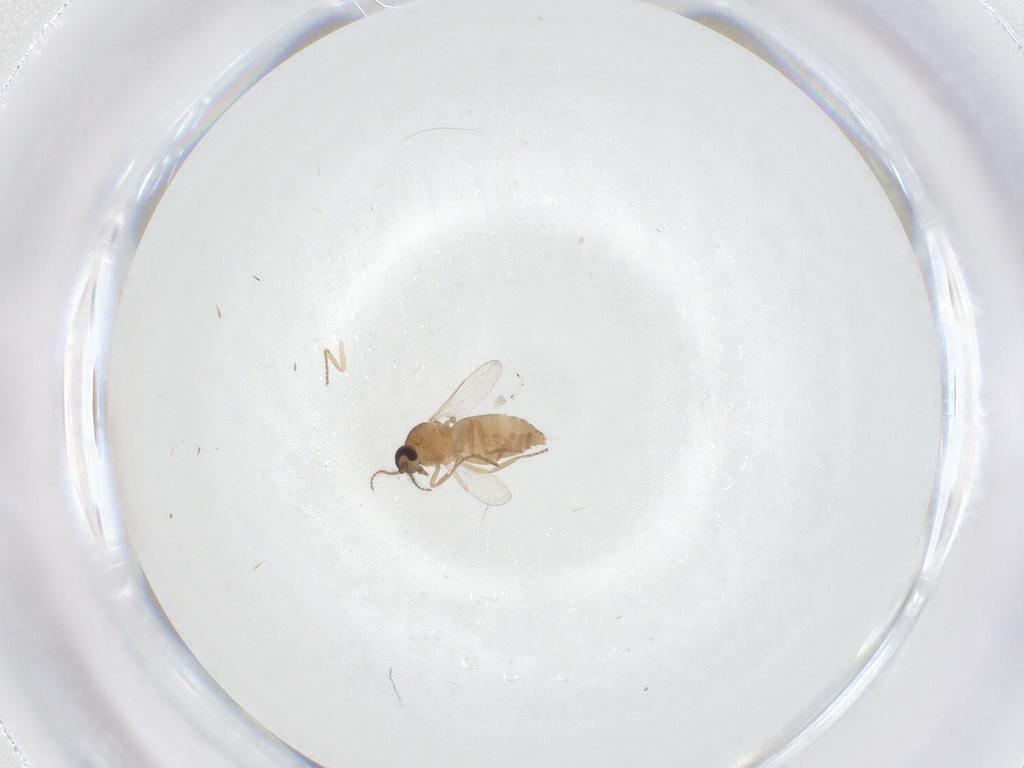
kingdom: Animalia
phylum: Arthropoda
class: Insecta
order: Diptera
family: Ceratopogonidae
